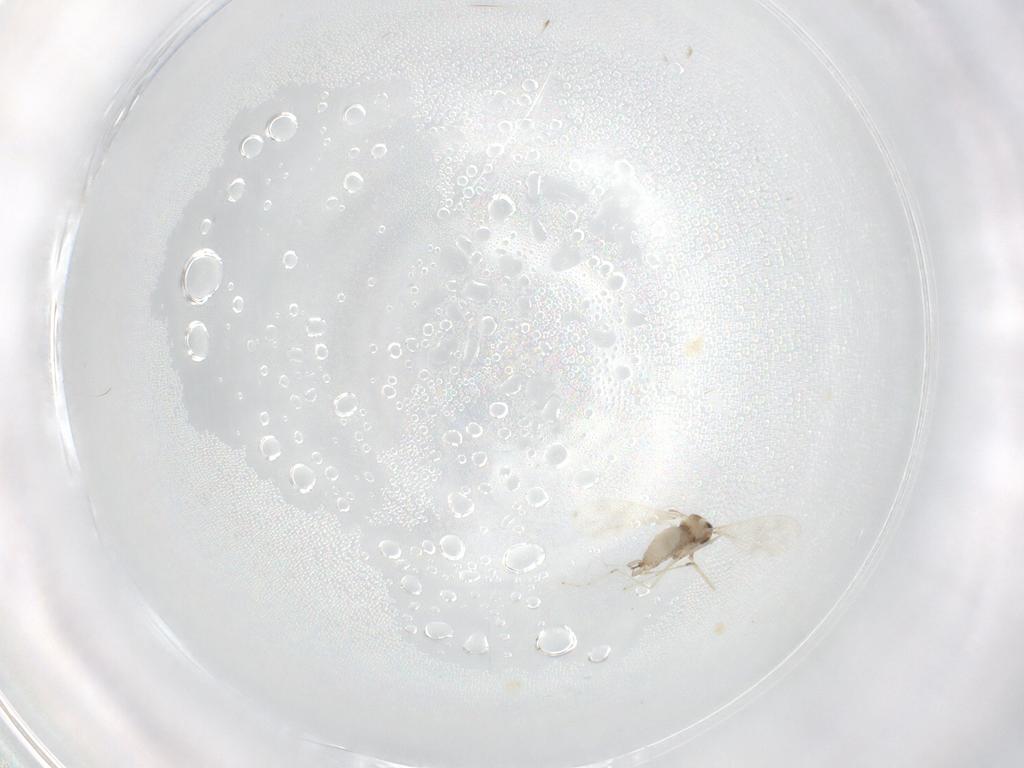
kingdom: Animalia
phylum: Arthropoda
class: Insecta
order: Diptera
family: Cecidomyiidae
